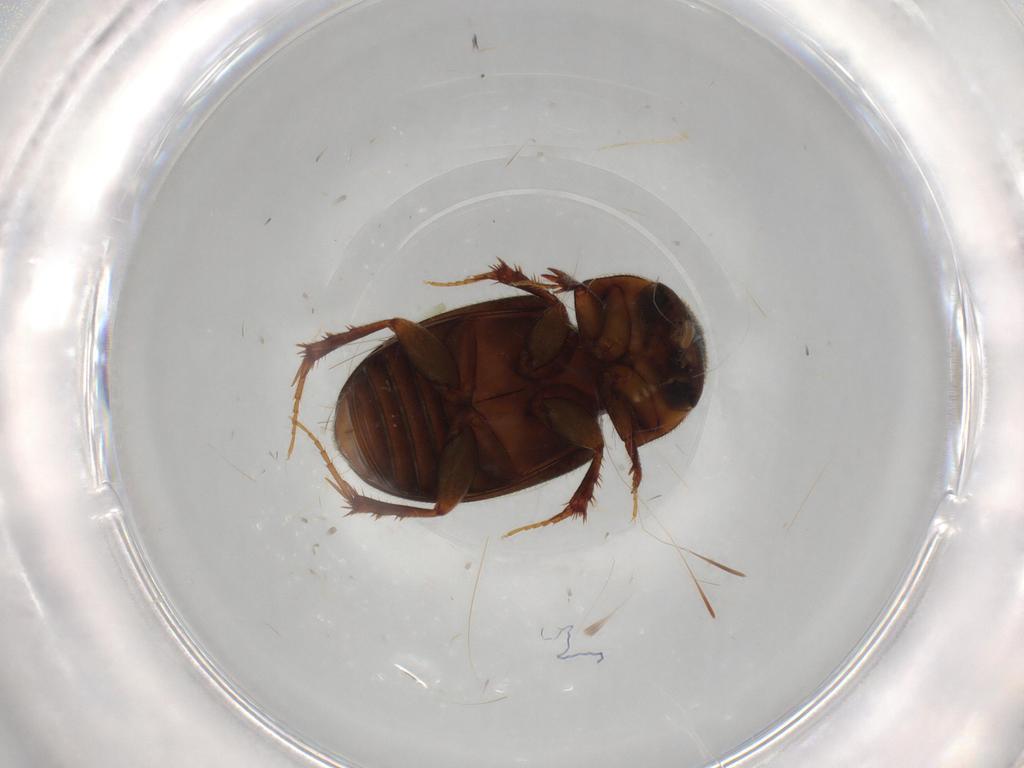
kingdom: Animalia
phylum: Arthropoda
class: Insecta
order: Coleoptera
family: Scarabaeidae
